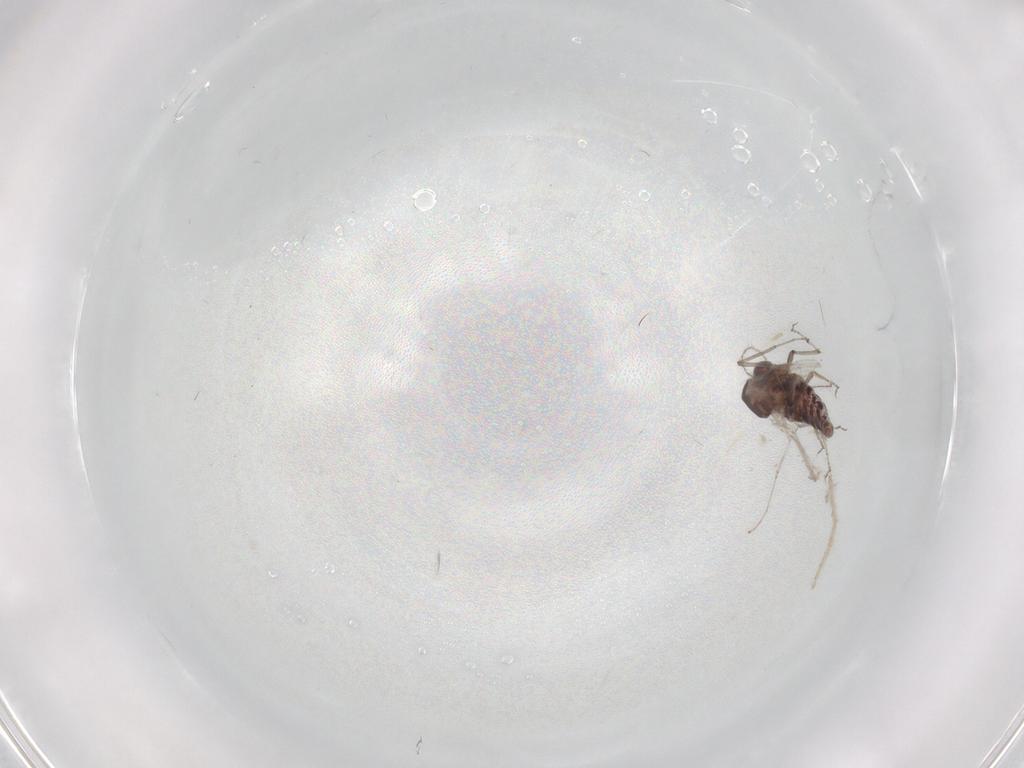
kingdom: Animalia
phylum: Arthropoda
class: Insecta
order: Diptera
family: Ceratopogonidae
